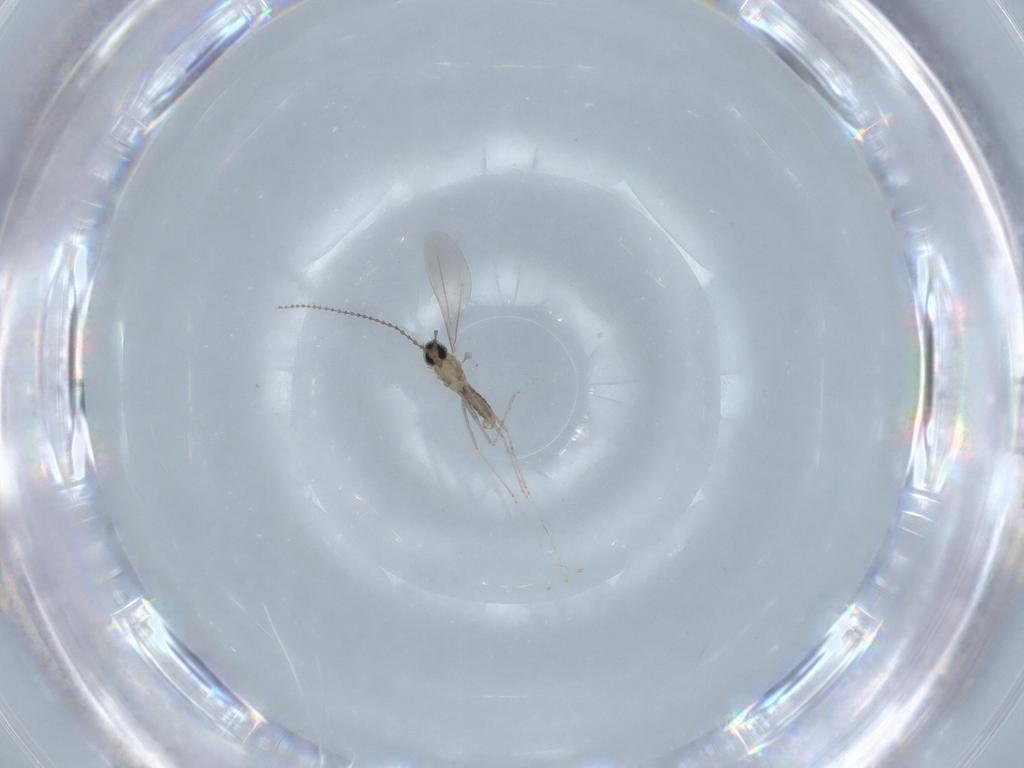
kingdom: Animalia
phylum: Arthropoda
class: Insecta
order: Diptera
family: Cecidomyiidae
